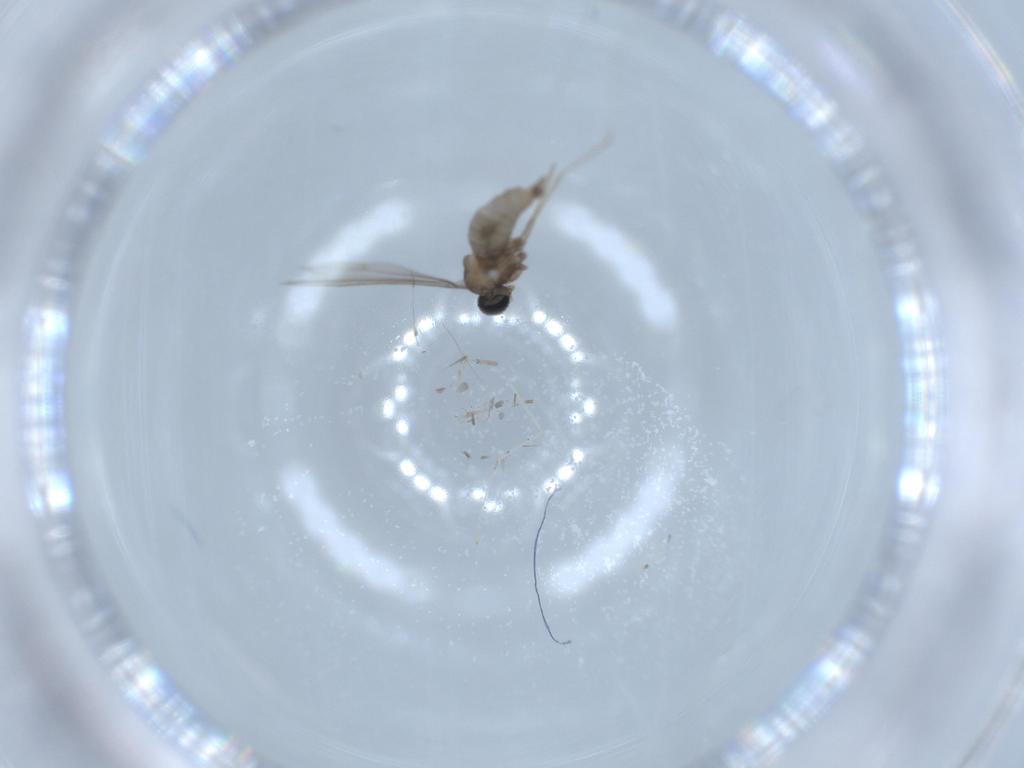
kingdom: Animalia
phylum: Arthropoda
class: Insecta
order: Diptera
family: Cecidomyiidae
